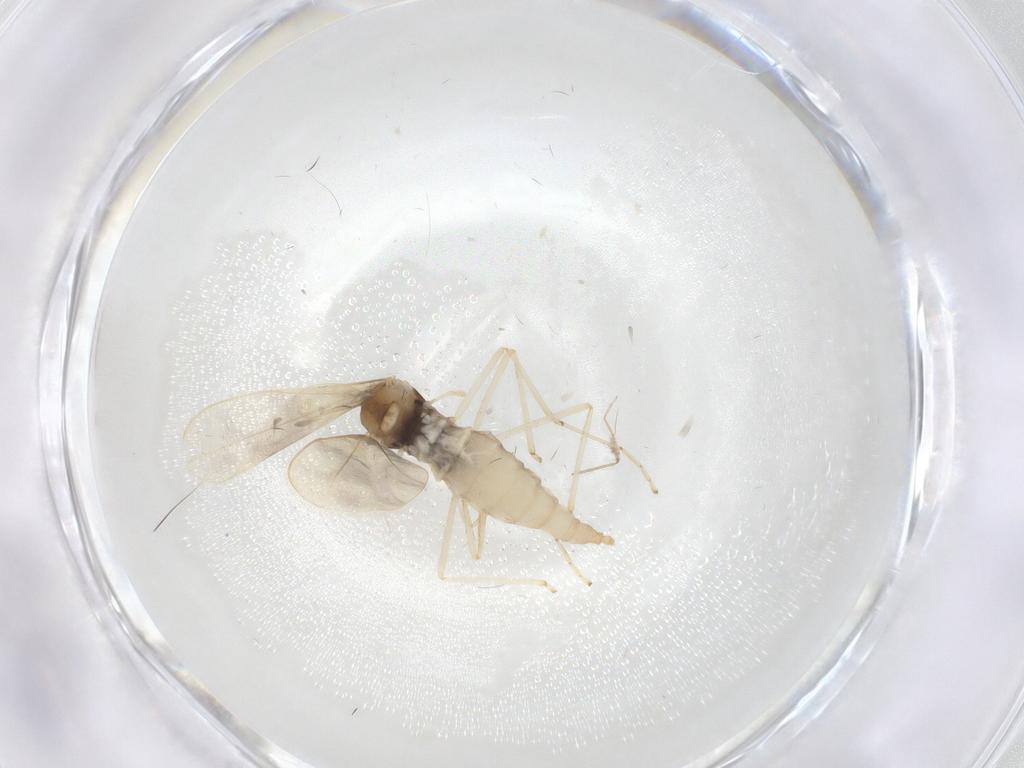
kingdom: Animalia
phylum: Arthropoda
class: Insecta
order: Diptera
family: Cecidomyiidae
